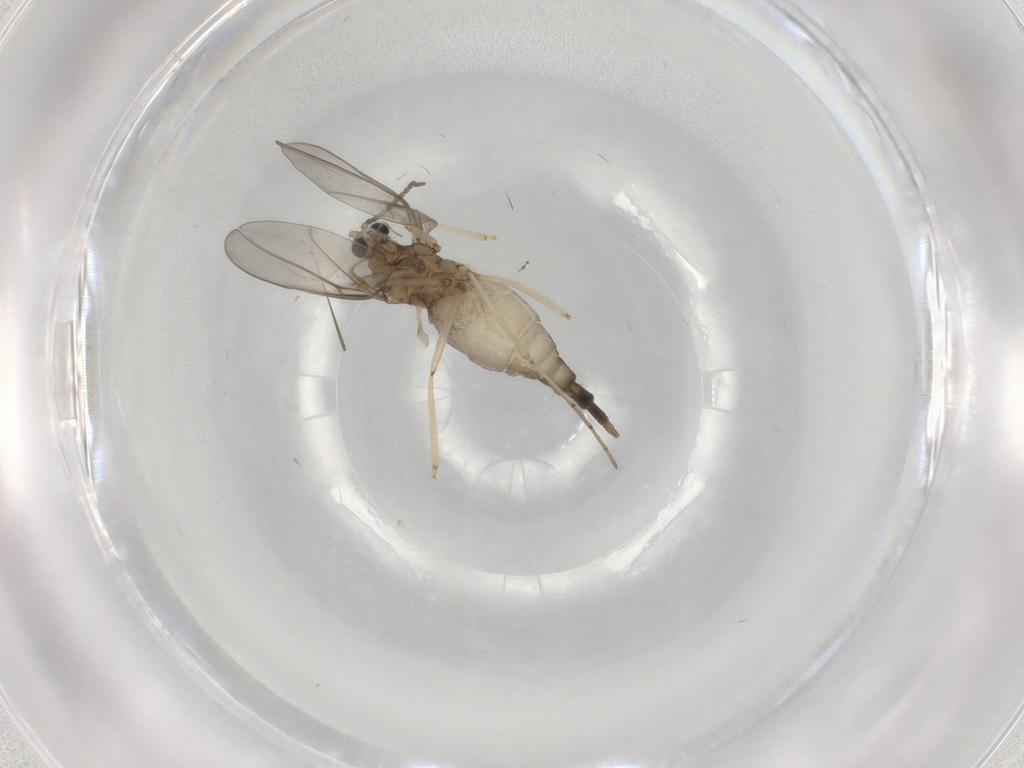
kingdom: Animalia
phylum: Arthropoda
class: Insecta
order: Diptera
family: Cecidomyiidae
